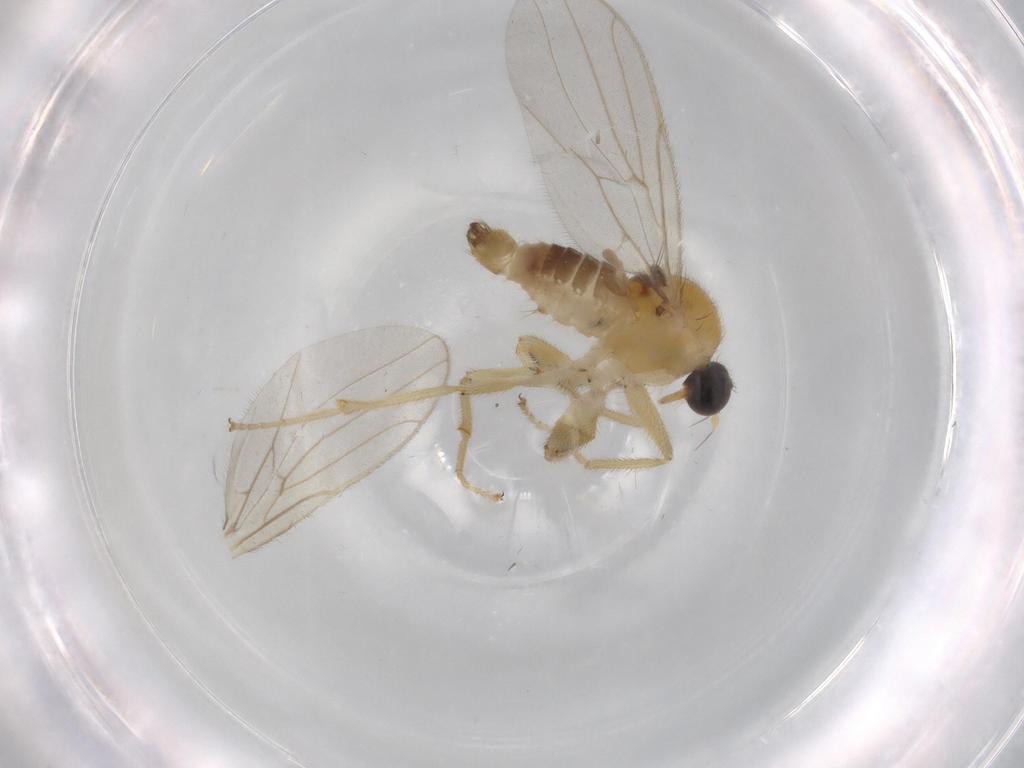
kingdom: Animalia
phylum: Arthropoda
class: Insecta
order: Diptera
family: Hybotidae
